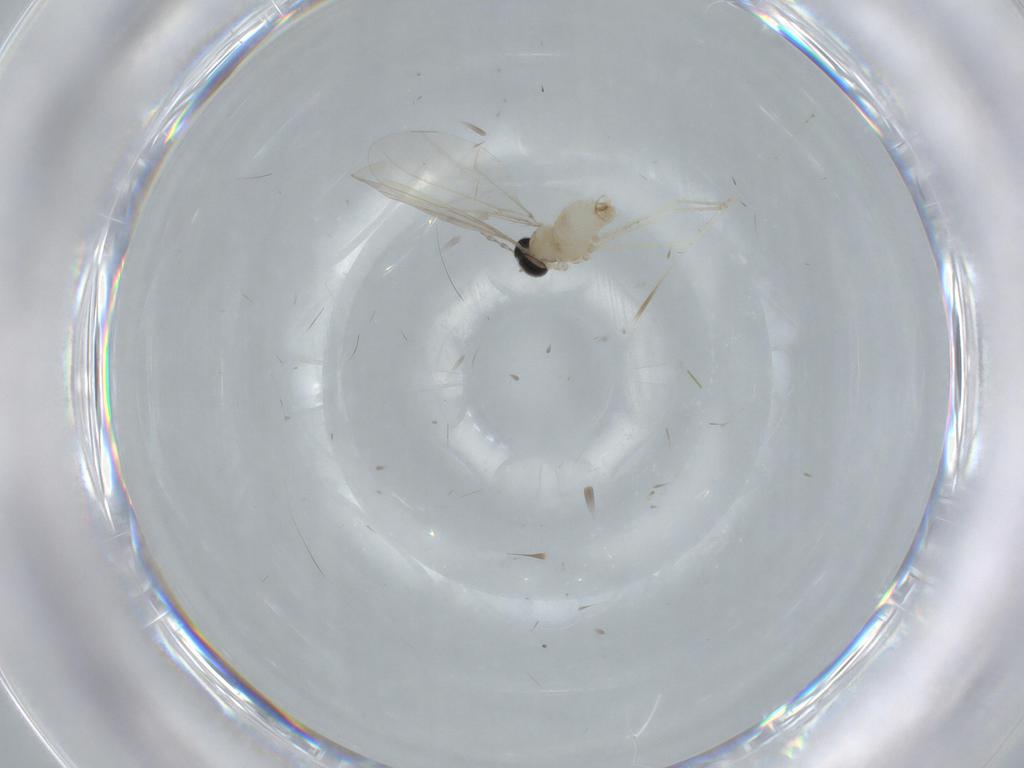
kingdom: Animalia
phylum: Arthropoda
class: Insecta
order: Diptera
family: Cecidomyiidae
